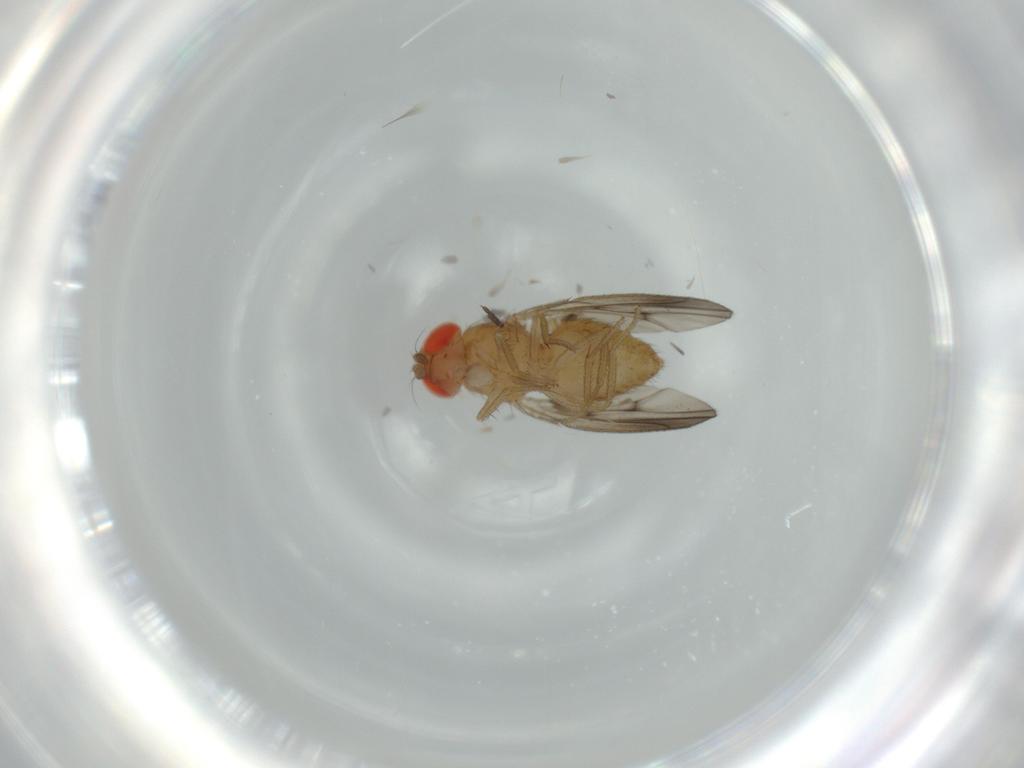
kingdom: Animalia
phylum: Arthropoda
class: Insecta
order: Diptera
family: Drosophilidae
